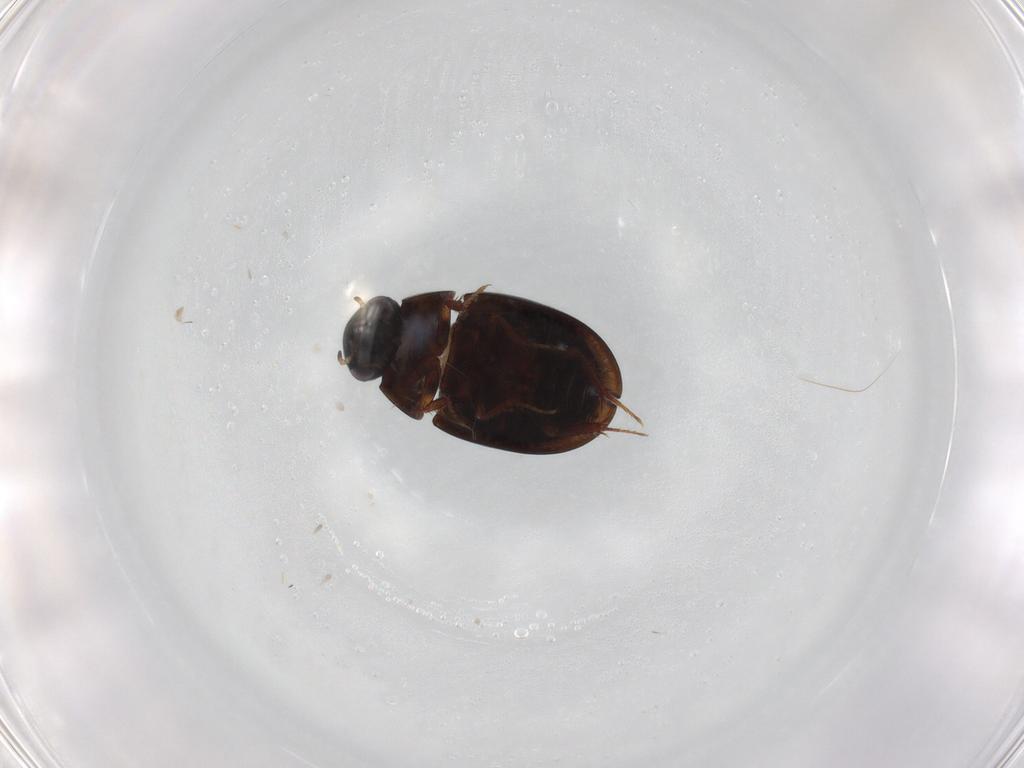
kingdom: Animalia
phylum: Arthropoda
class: Insecta
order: Coleoptera
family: Hydrophilidae
